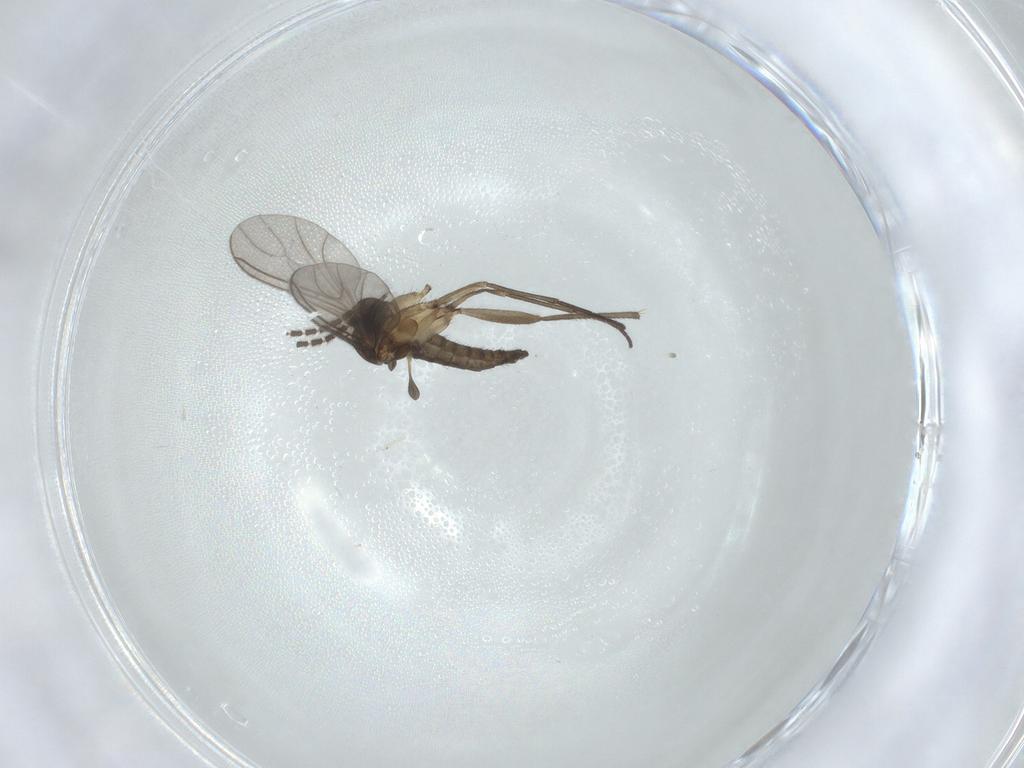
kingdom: Animalia
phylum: Arthropoda
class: Insecta
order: Diptera
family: Sciaridae
